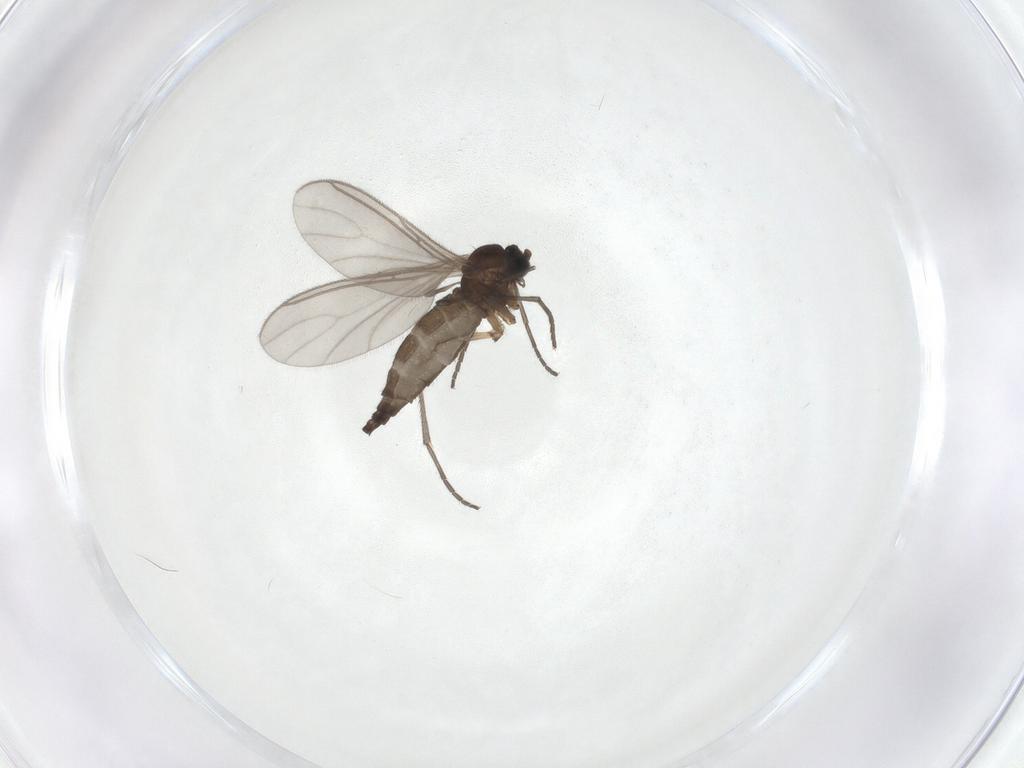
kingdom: Animalia
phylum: Arthropoda
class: Insecta
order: Diptera
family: Sciaridae
